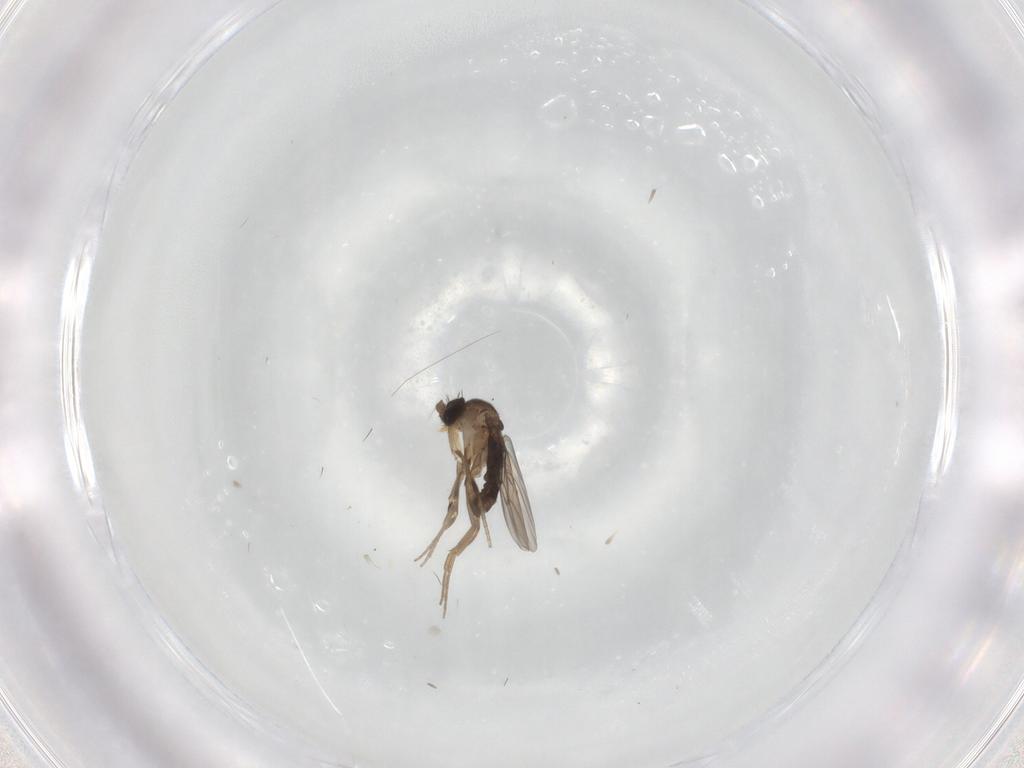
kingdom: Animalia
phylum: Arthropoda
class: Insecta
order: Diptera
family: Phoridae
